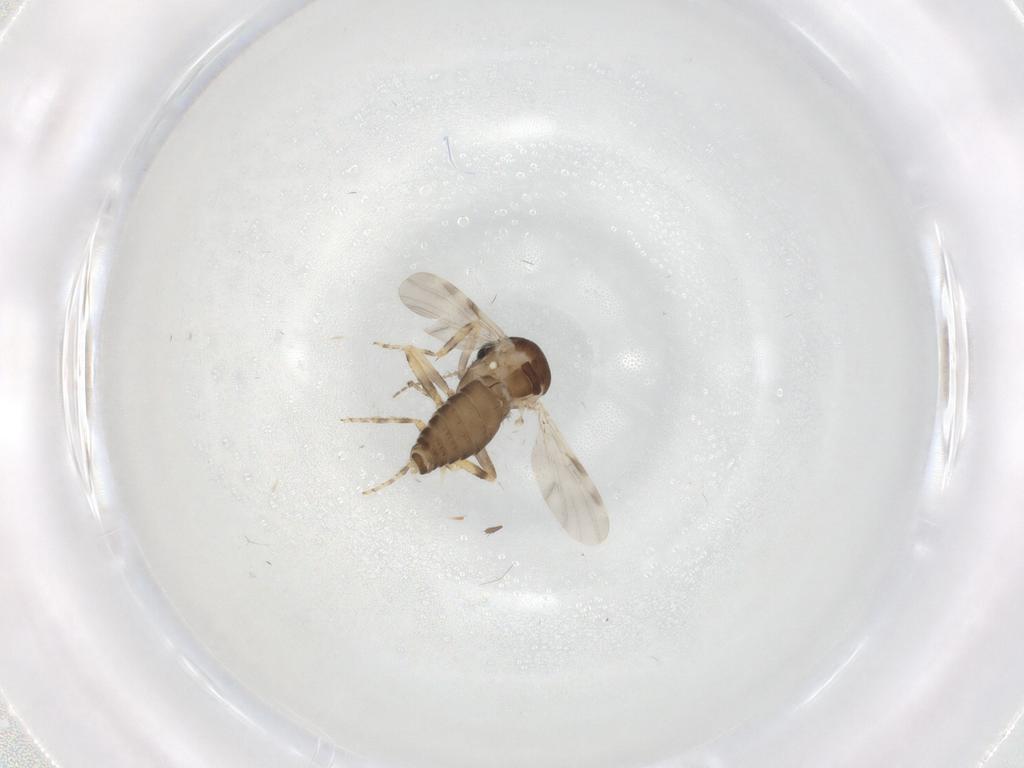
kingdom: Animalia
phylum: Arthropoda
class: Insecta
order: Diptera
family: Ceratopogonidae
